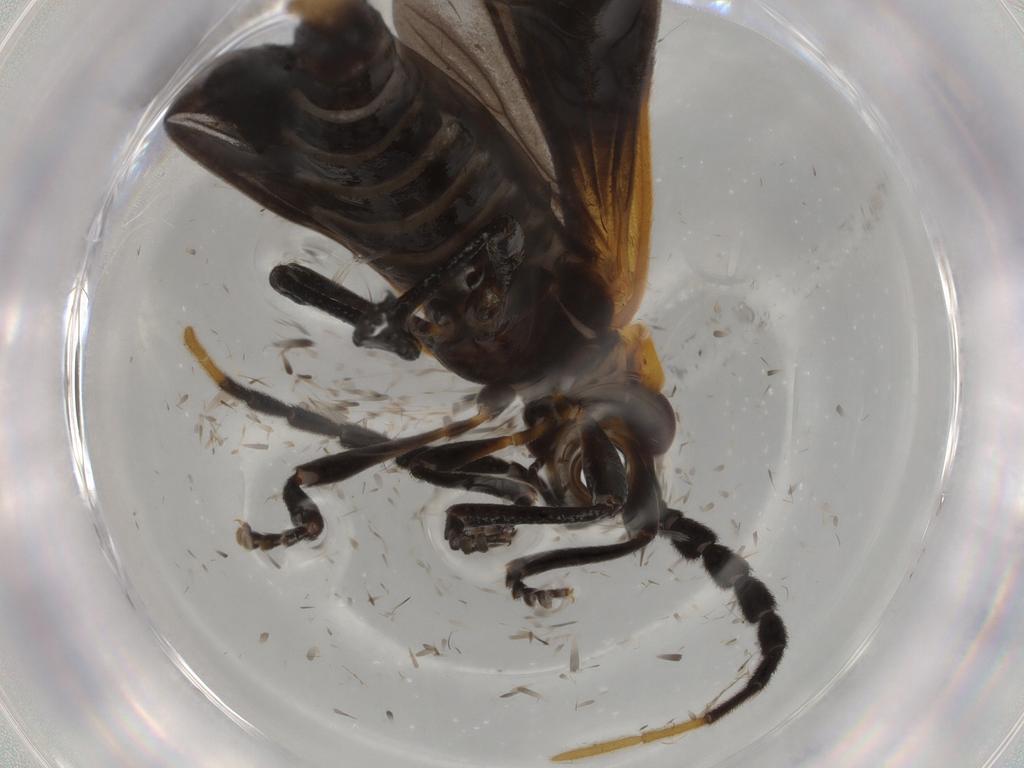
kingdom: Animalia
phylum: Arthropoda
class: Insecta
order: Coleoptera
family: Lycidae
